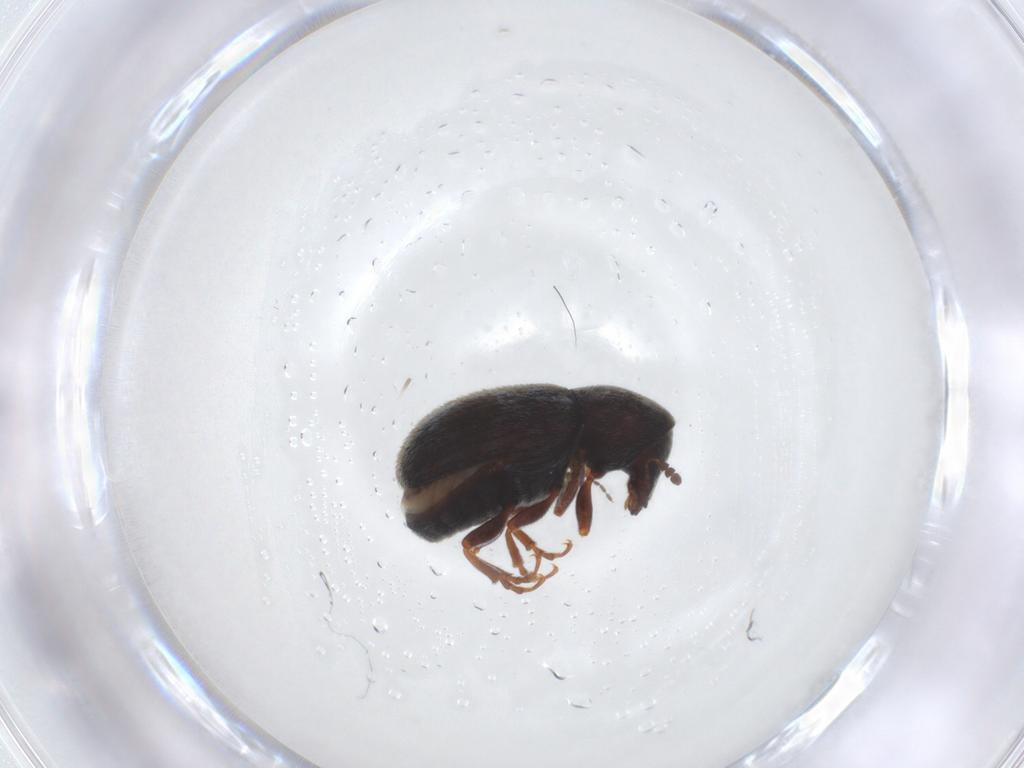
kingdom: Animalia
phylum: Arthropoda
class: Insecta
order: Coleoptera
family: Anthribidae
